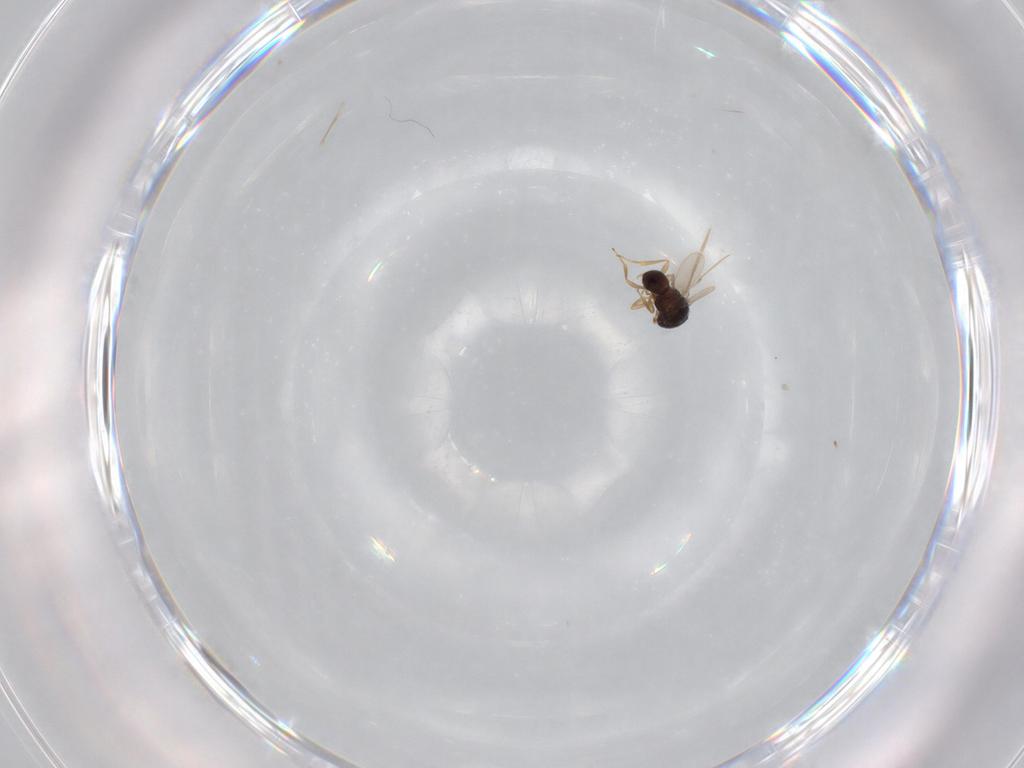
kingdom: Animalia
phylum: Arthropoda
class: Insecta
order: Hymenoptera
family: Scelionidae
